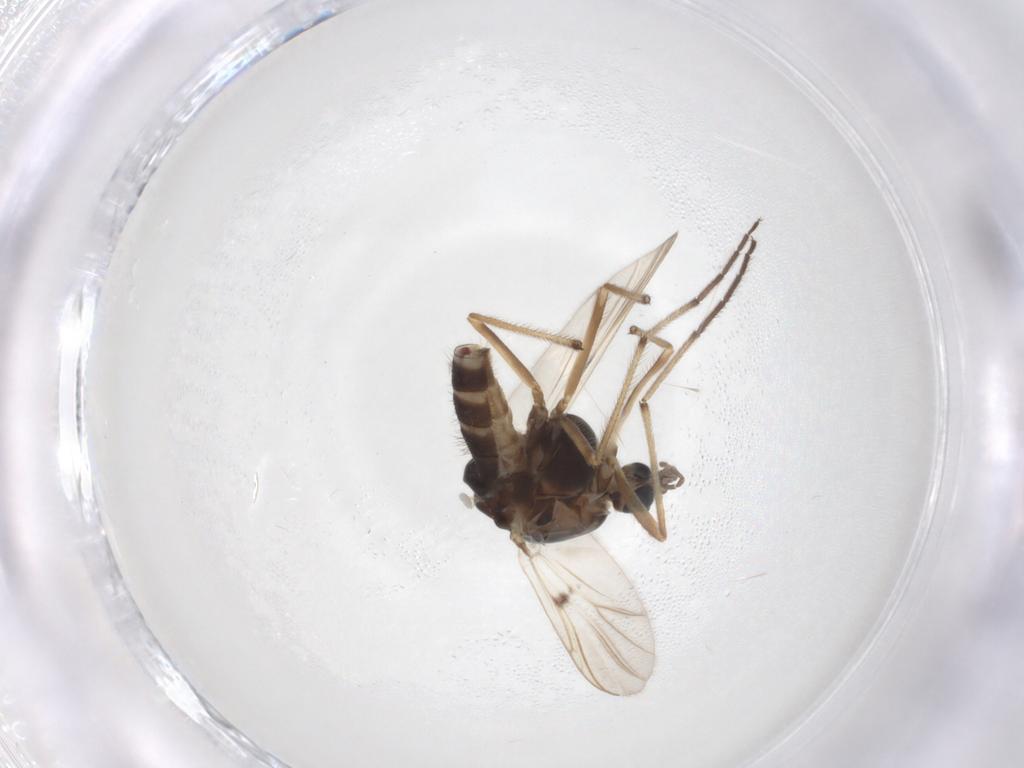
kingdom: Animalia
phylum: Arthropoda
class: Insecta
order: Diptera
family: Chironomidae
